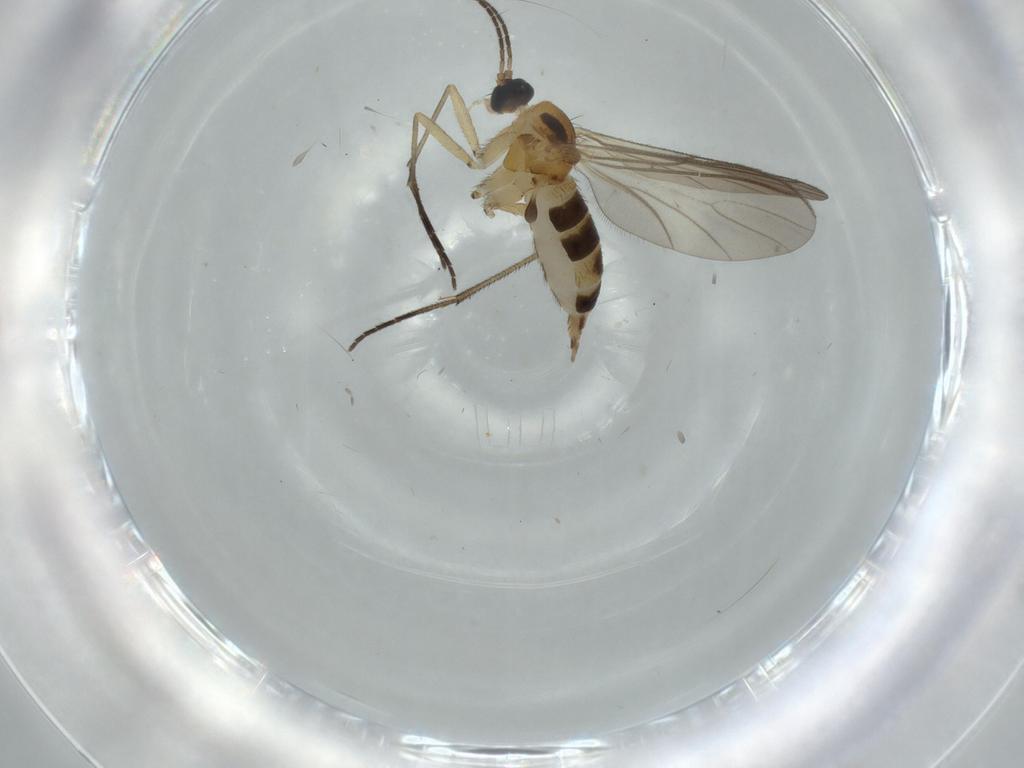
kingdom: Animalia
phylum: Arthropoda
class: Insecta
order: Diptera
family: Sciaridae
